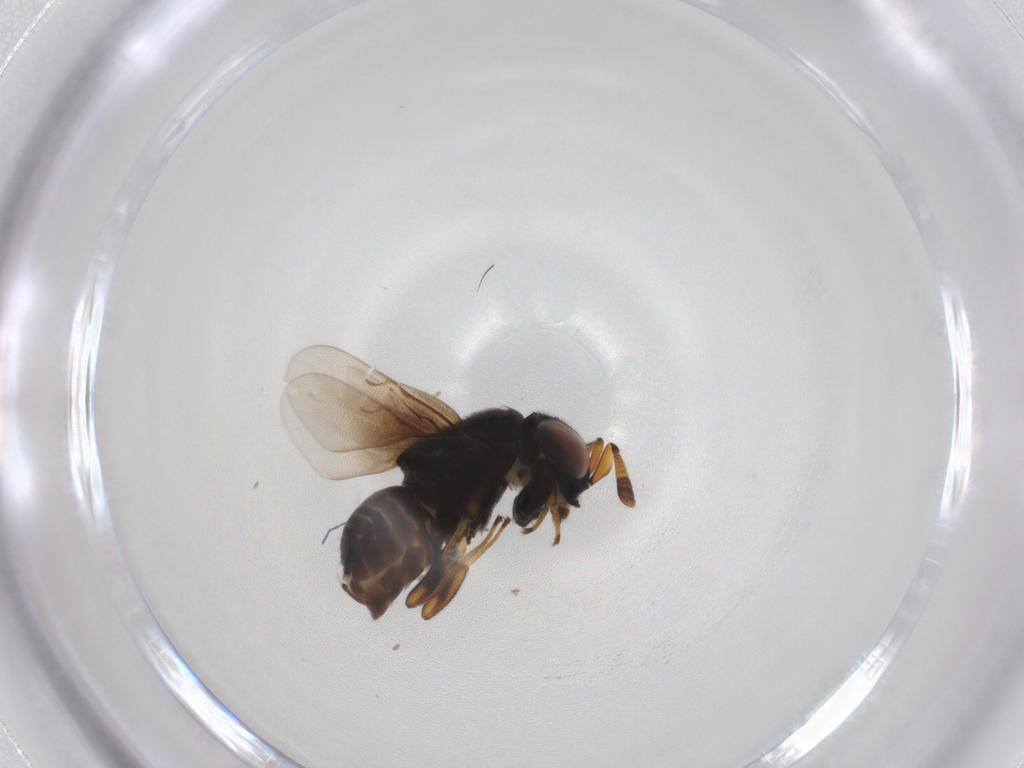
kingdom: Animalia
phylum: Arthropoda
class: Insecta
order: Hymenoptera
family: Encyrtidae
